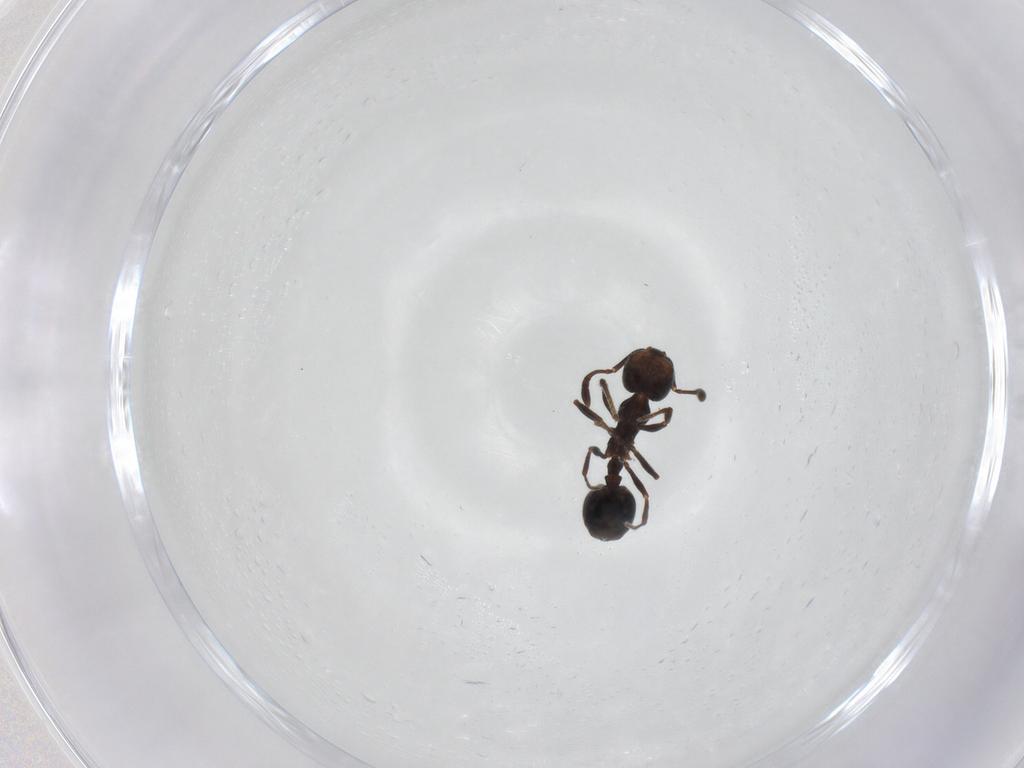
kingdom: Animalia
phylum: Arthropoda
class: Insecta
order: Hymenoptera
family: Formicidae
